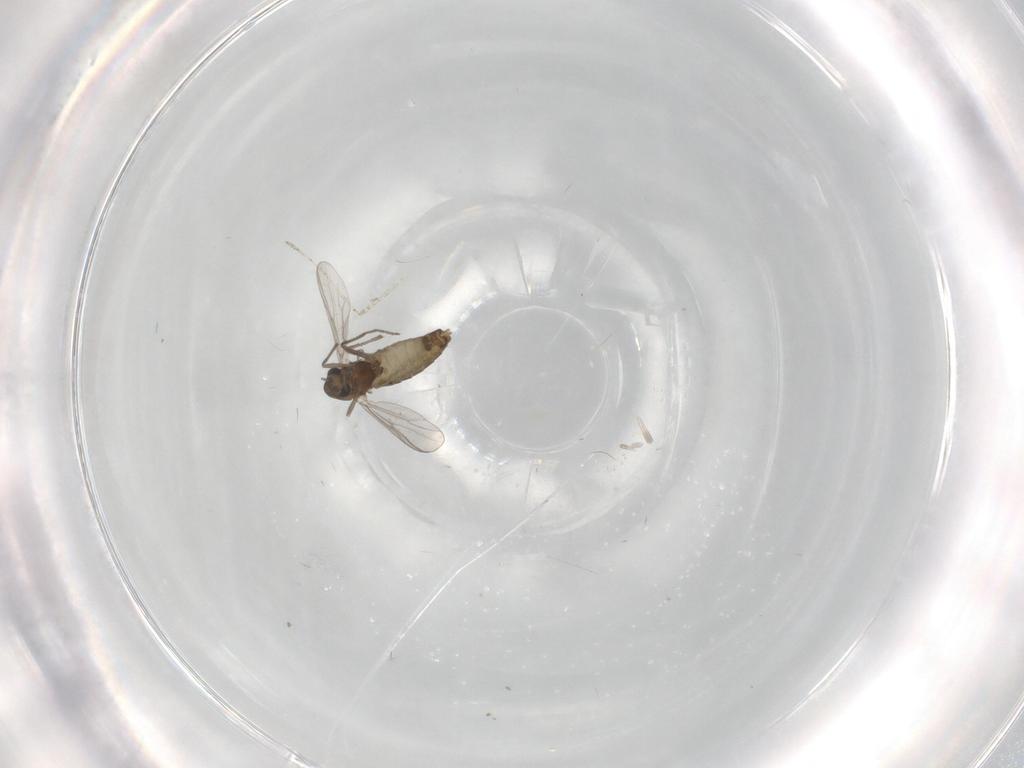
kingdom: Animalia
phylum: Arthropoda
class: Insecta
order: Diptera
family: Chironomidae
